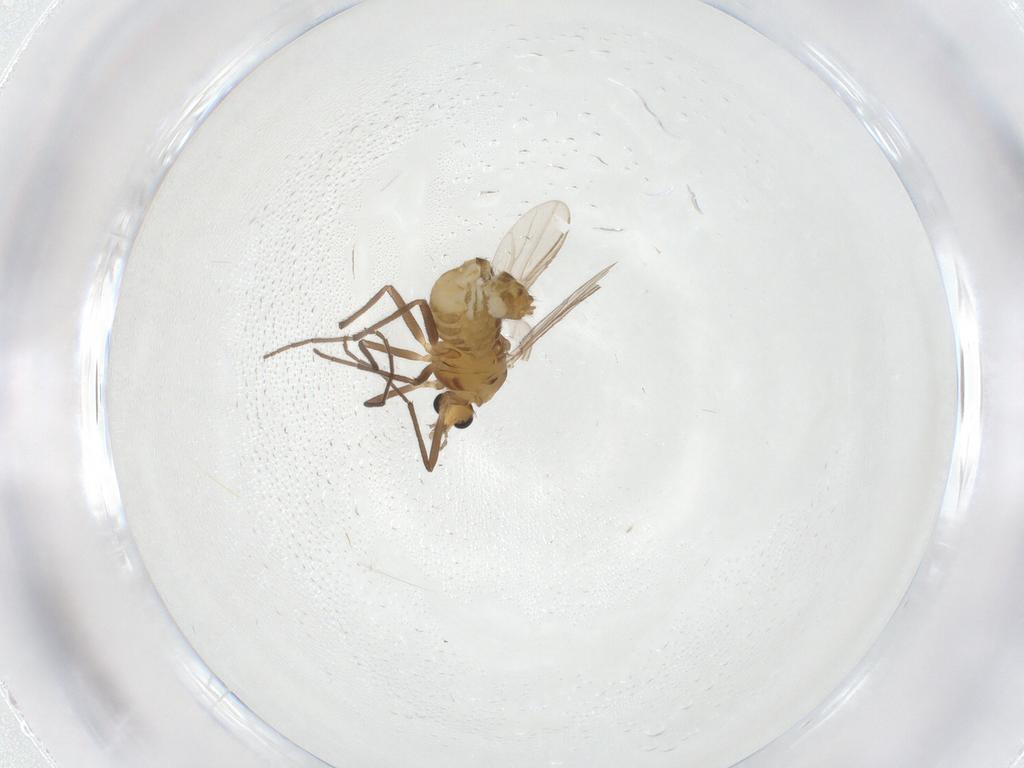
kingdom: Animalia
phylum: Arthropoda
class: Insecta
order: Diptera
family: Chironomidae
